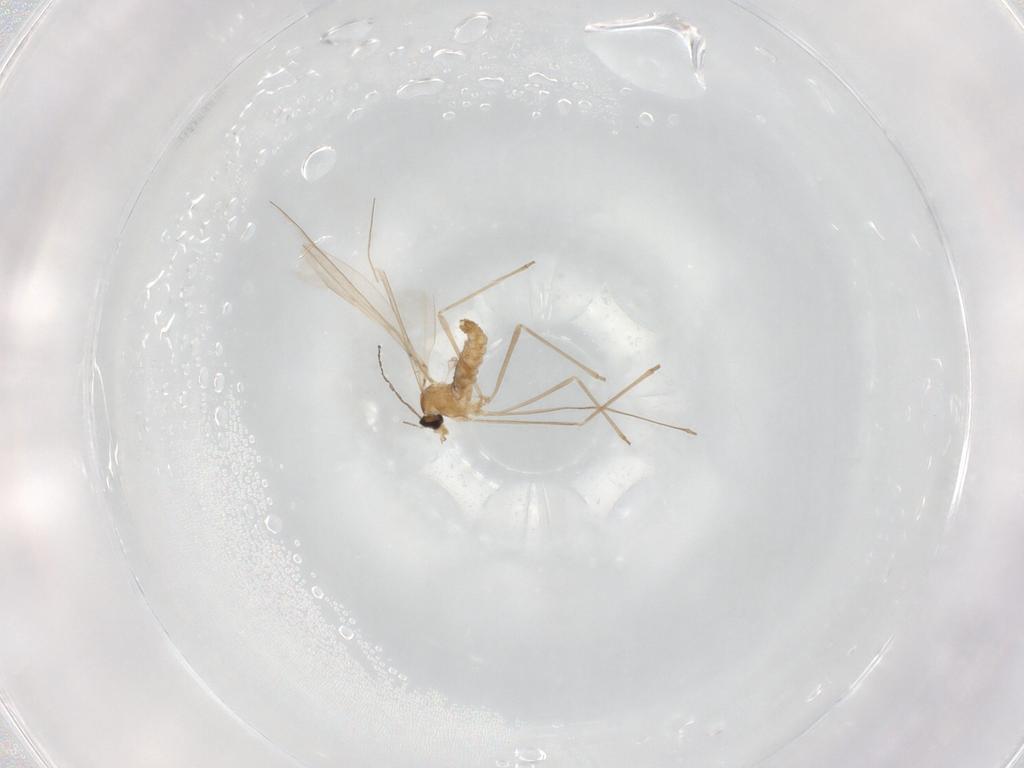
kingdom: Animalia
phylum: Arthropoda
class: Insecta
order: Diptera
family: Cecidomyiidae
